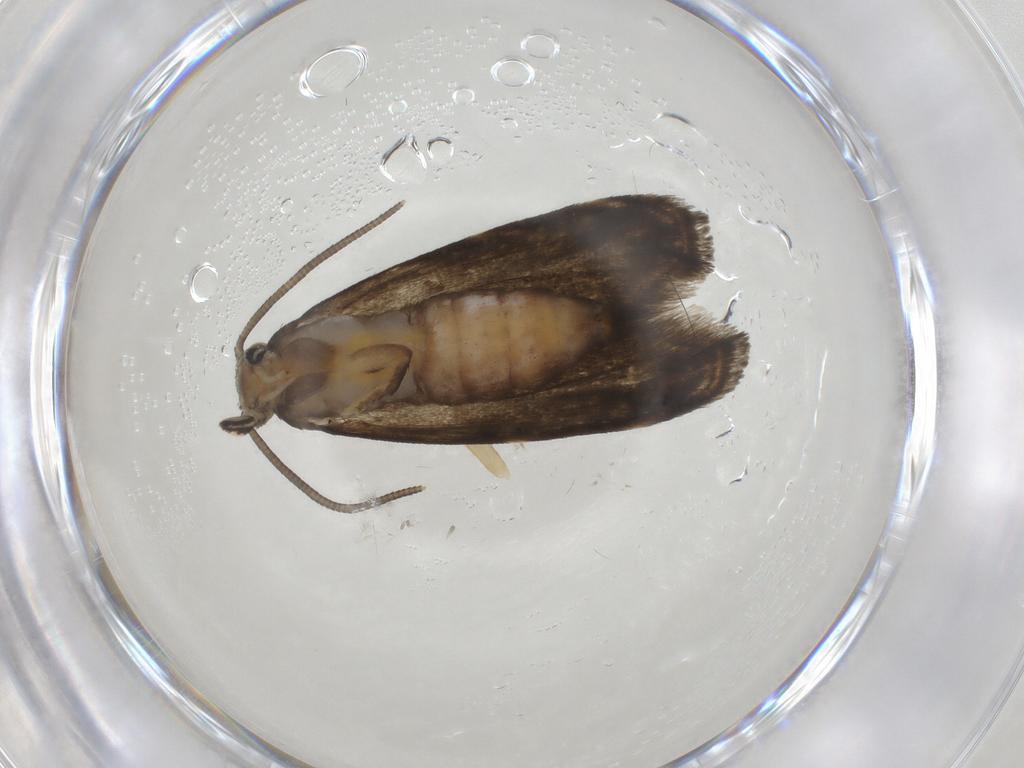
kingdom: Animalia
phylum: Arthropoda
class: Insecta
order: Lepidoptera
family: Dryadaulidae
